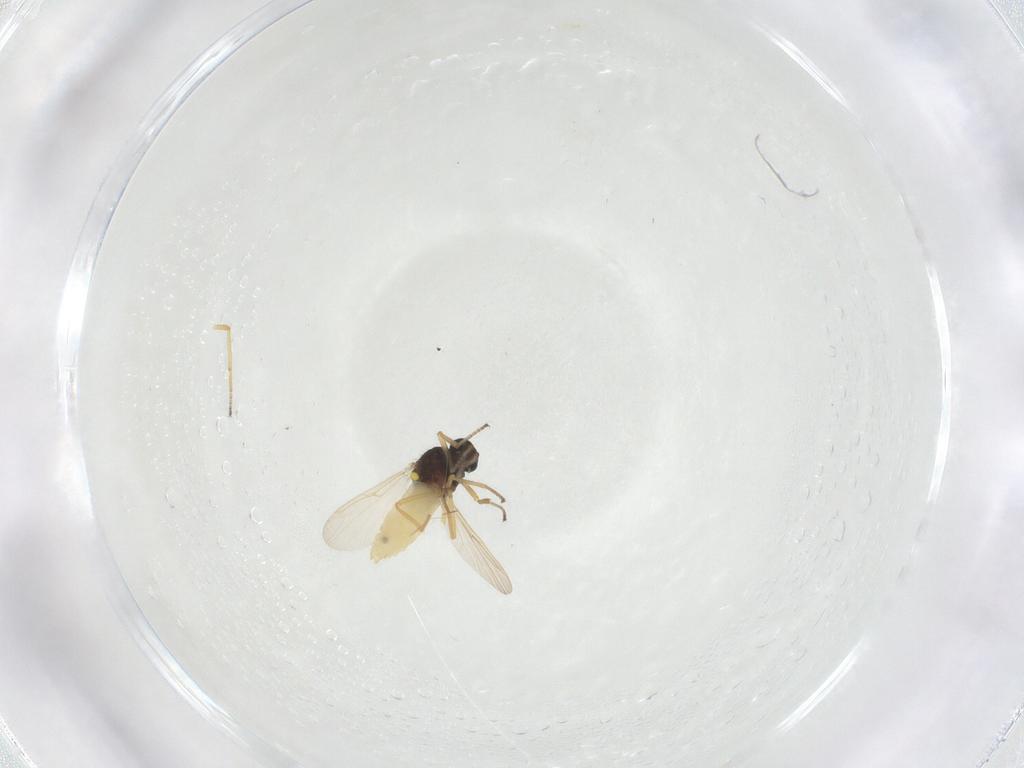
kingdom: Animalia
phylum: Arthropoda
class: Insecta
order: Diptera
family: Ceratopogonidae
